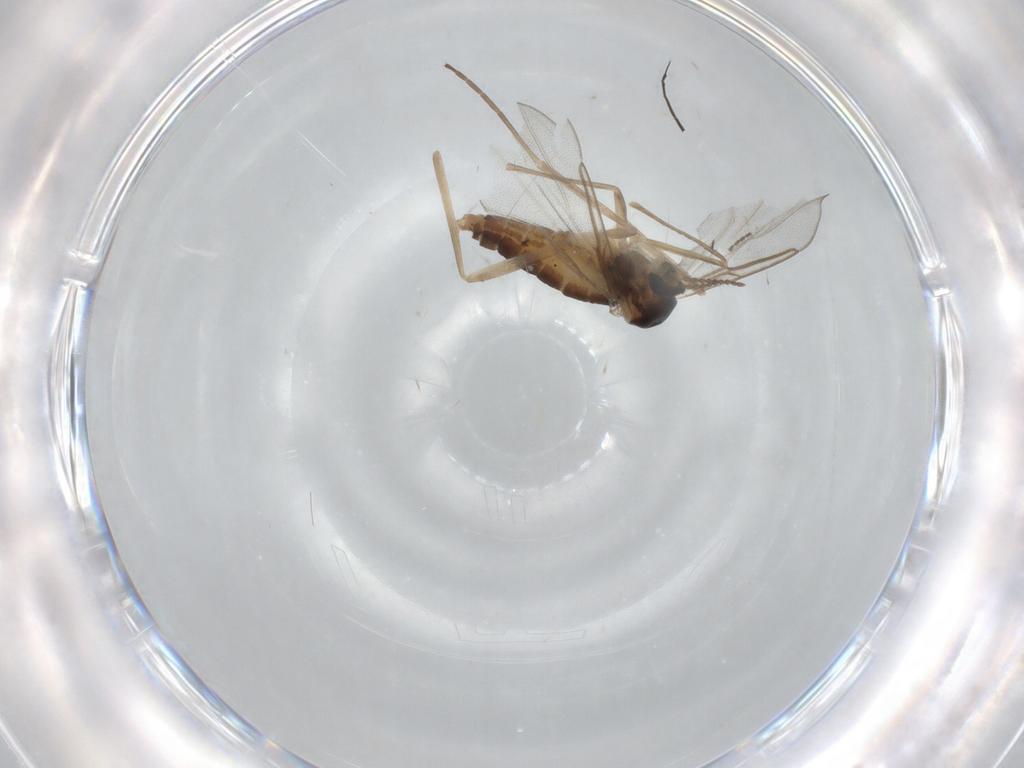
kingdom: Animalia
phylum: Arthropoda
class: Insecta
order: Diptera
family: Cecidomyiidae
